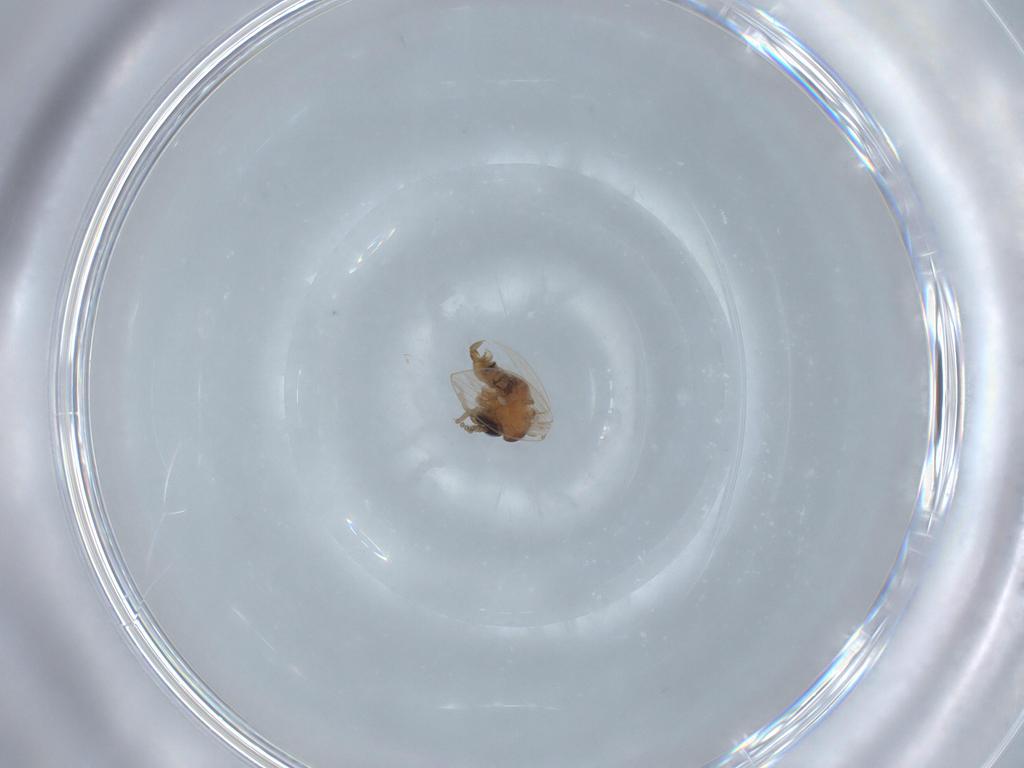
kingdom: Animalia
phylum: Arthropoda
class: Insecta
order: Diptera
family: Psychodidae
